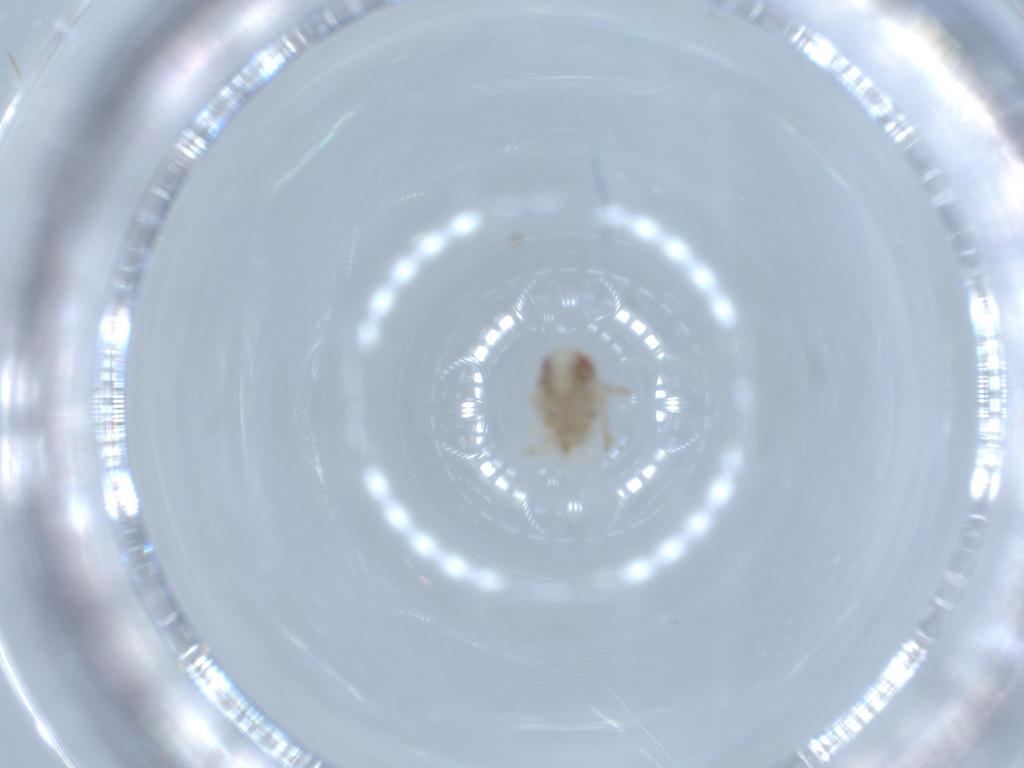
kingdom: Animalia
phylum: Arthropoda
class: Insecta
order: Hemiptera
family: Acanaloniidae
